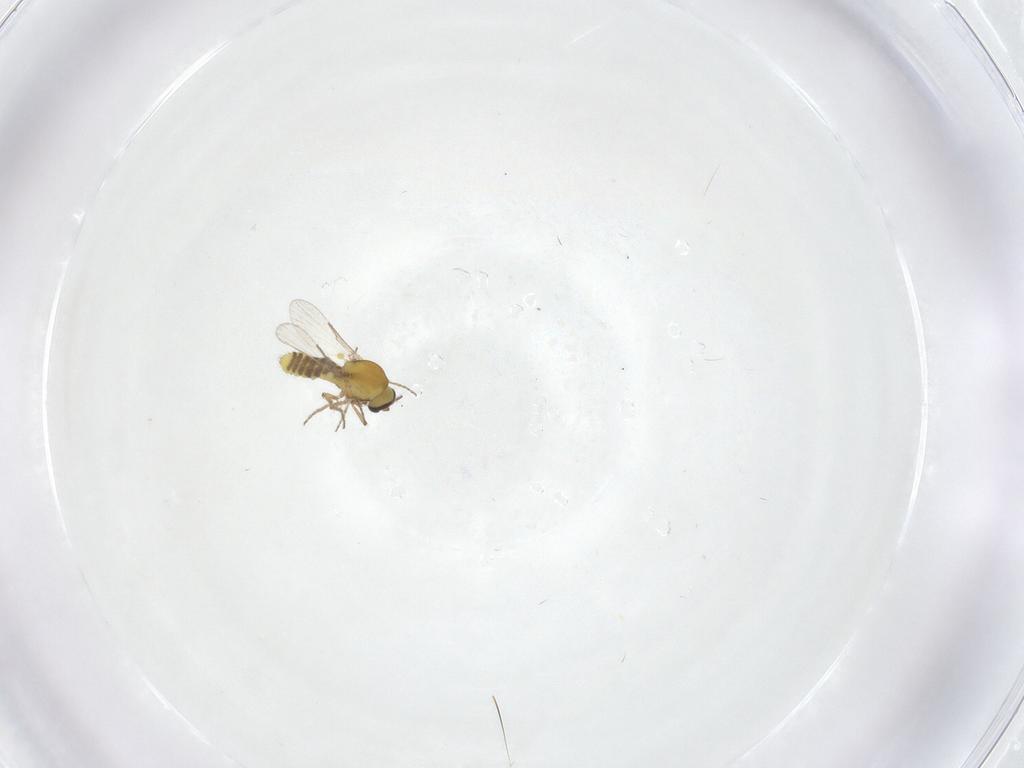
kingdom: Animalia
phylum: Arthropoda
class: Insecta
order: Diptera
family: Ceratopogonidae
